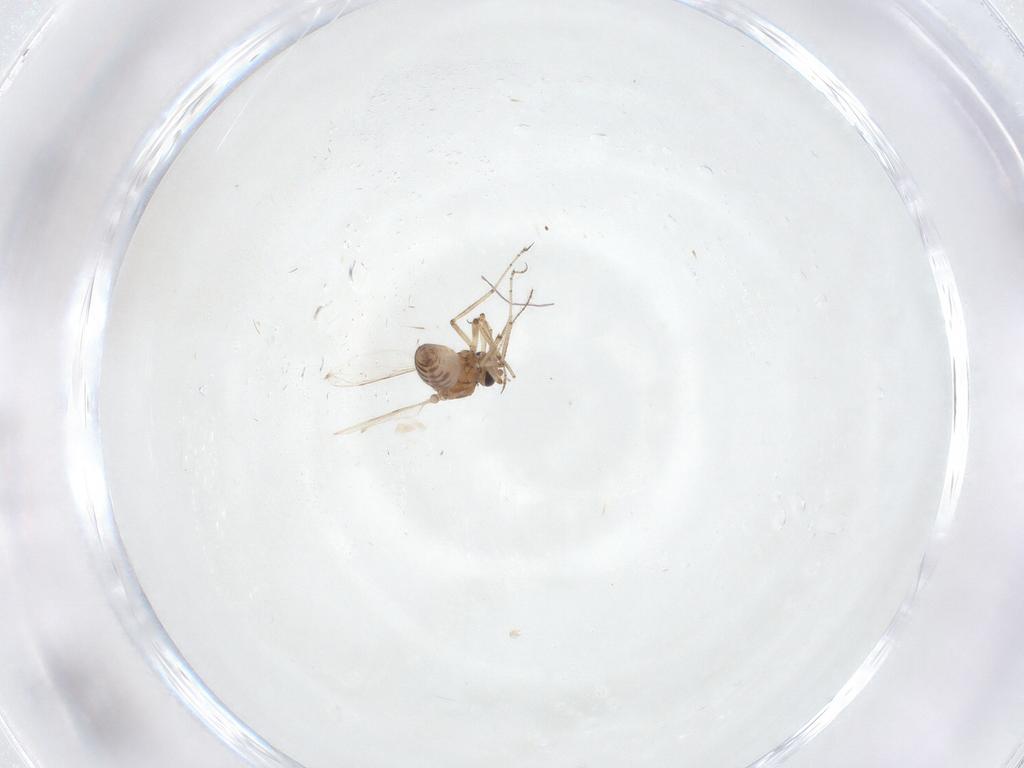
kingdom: Animalia
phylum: Arthropoda
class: Insecta
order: Diptera
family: Ceratopogonidae
